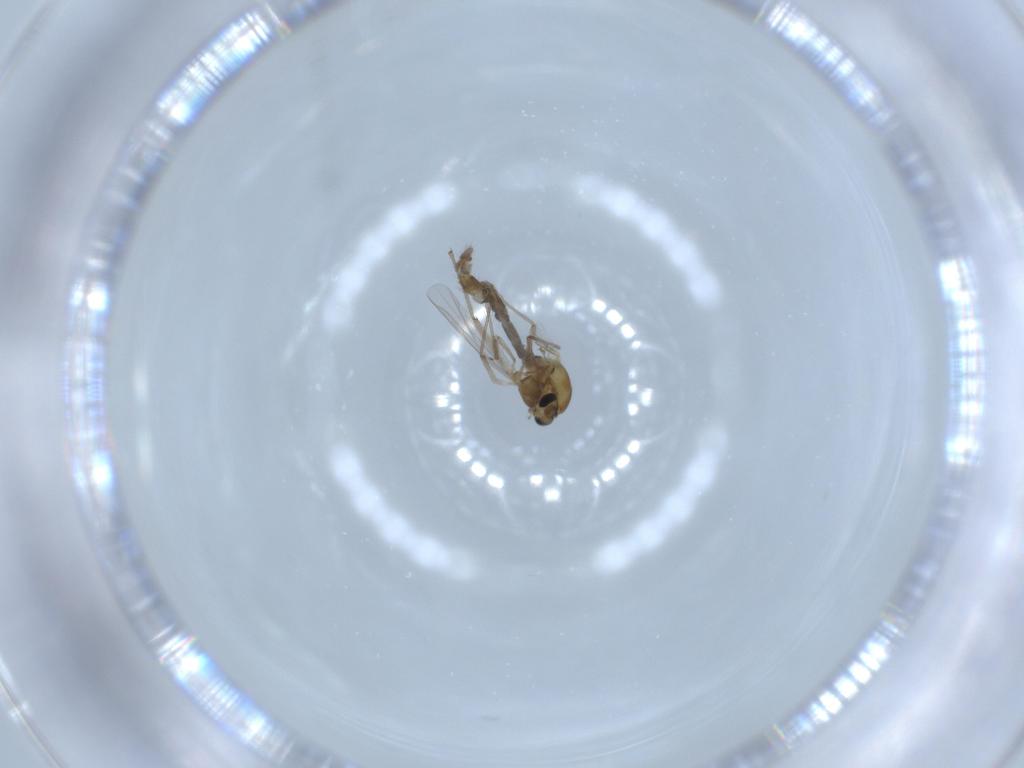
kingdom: Animalia
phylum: Arthropoda
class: Insecta
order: Diptera
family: Chironomidae
